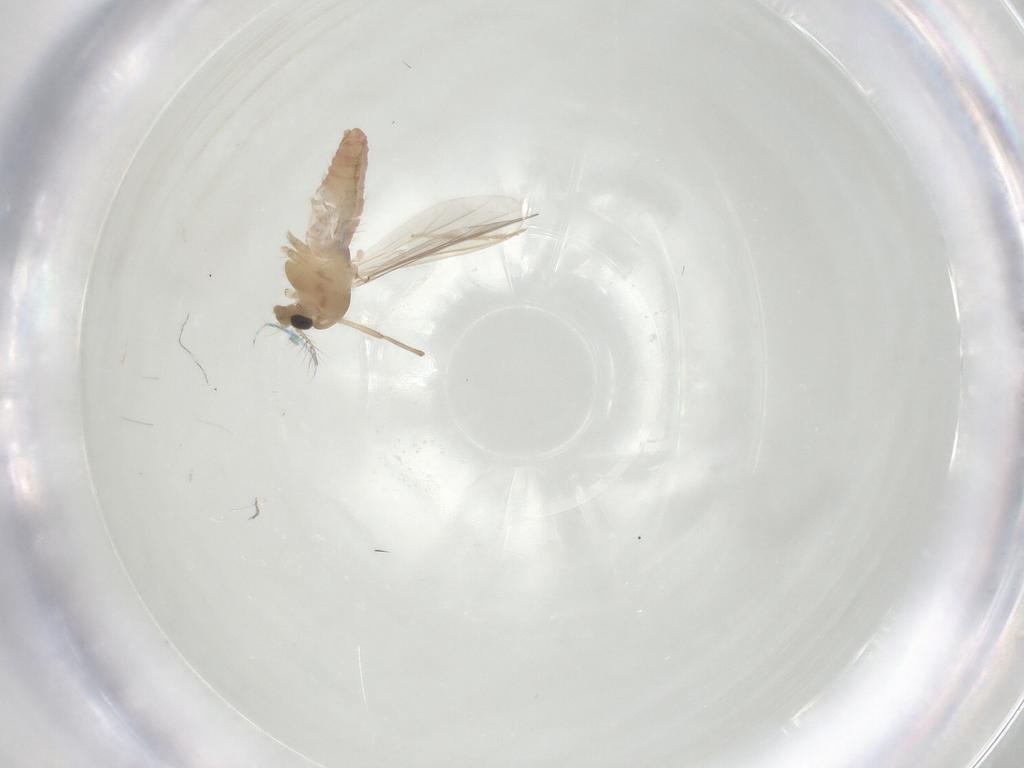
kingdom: Animalia
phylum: Arthropoda
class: Insecta
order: Diptera
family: Chironomidae
